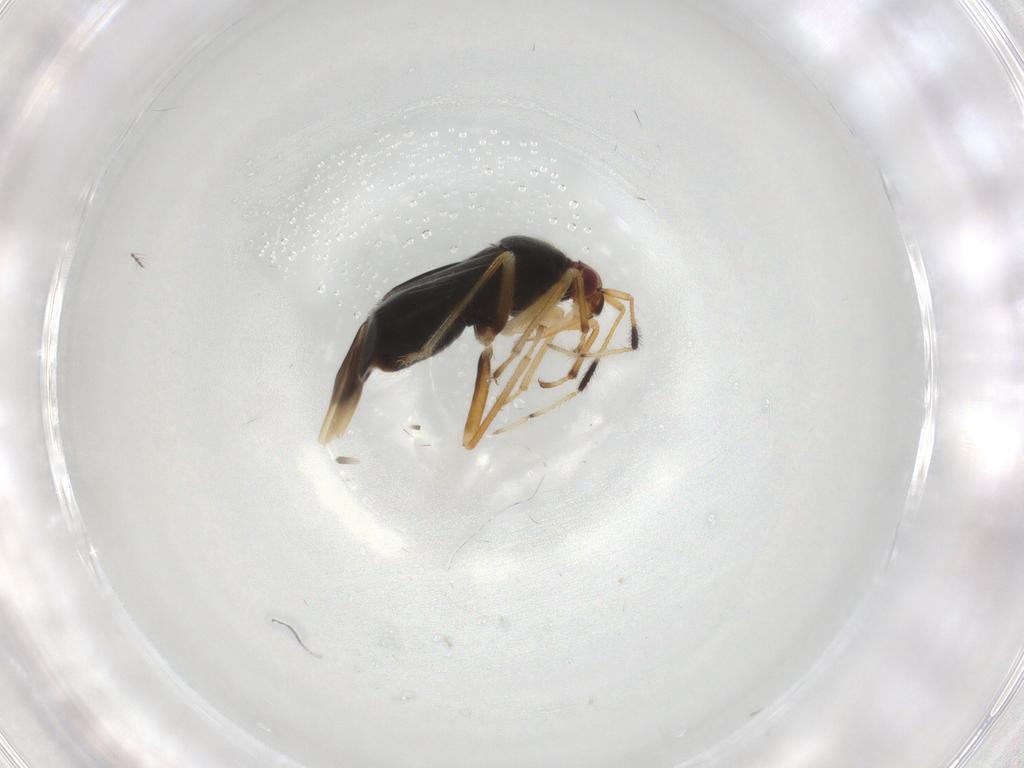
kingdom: Animalia
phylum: Arthropoda
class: Insecta
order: Hemiptera
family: Miridae
